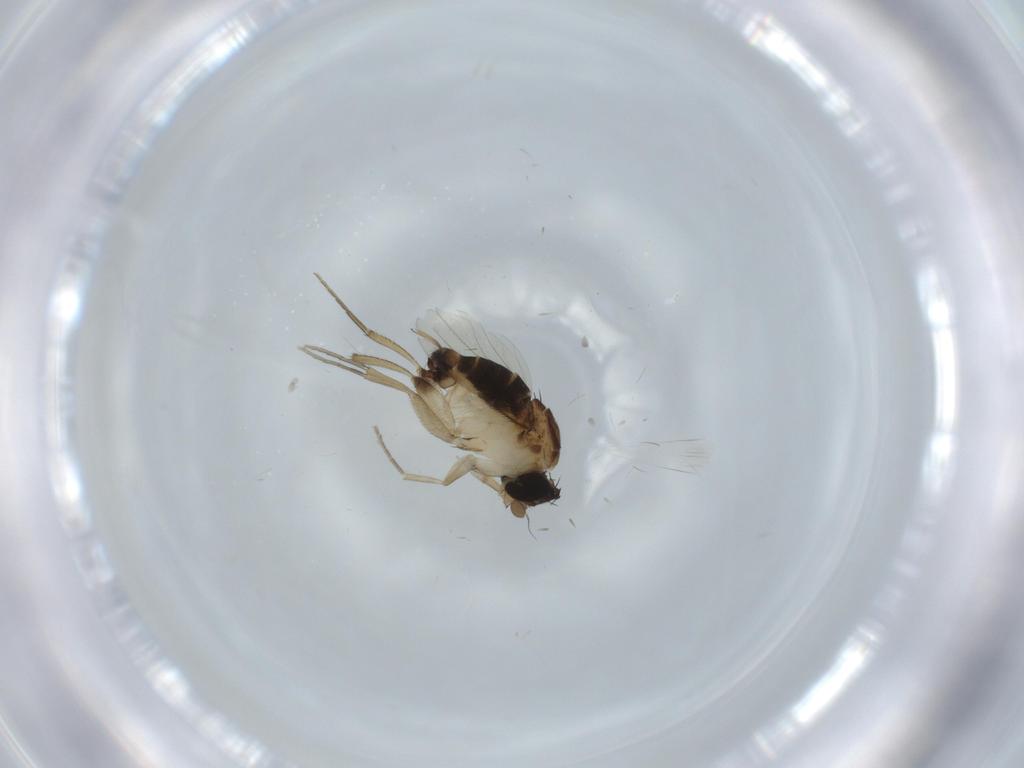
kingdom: Animalia
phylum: Arthropoda
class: Insecta
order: Diptera
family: Phoridae
